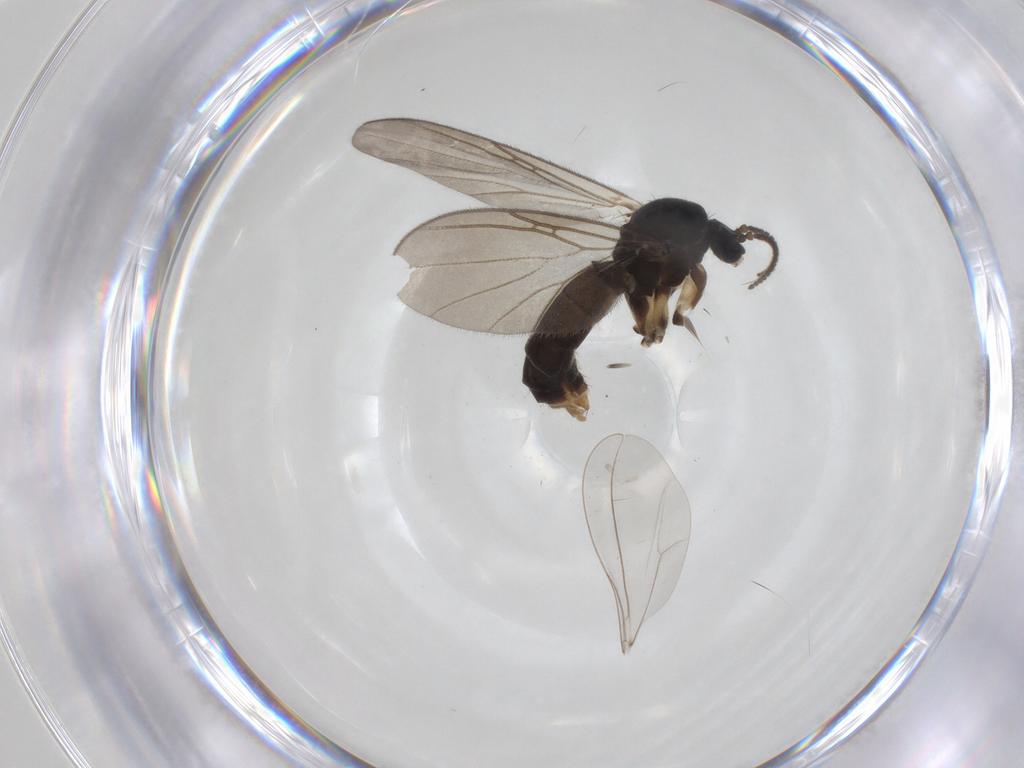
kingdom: Animalia
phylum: Arthropoda
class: Insecta
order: Diptera
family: Mycetophilidae
